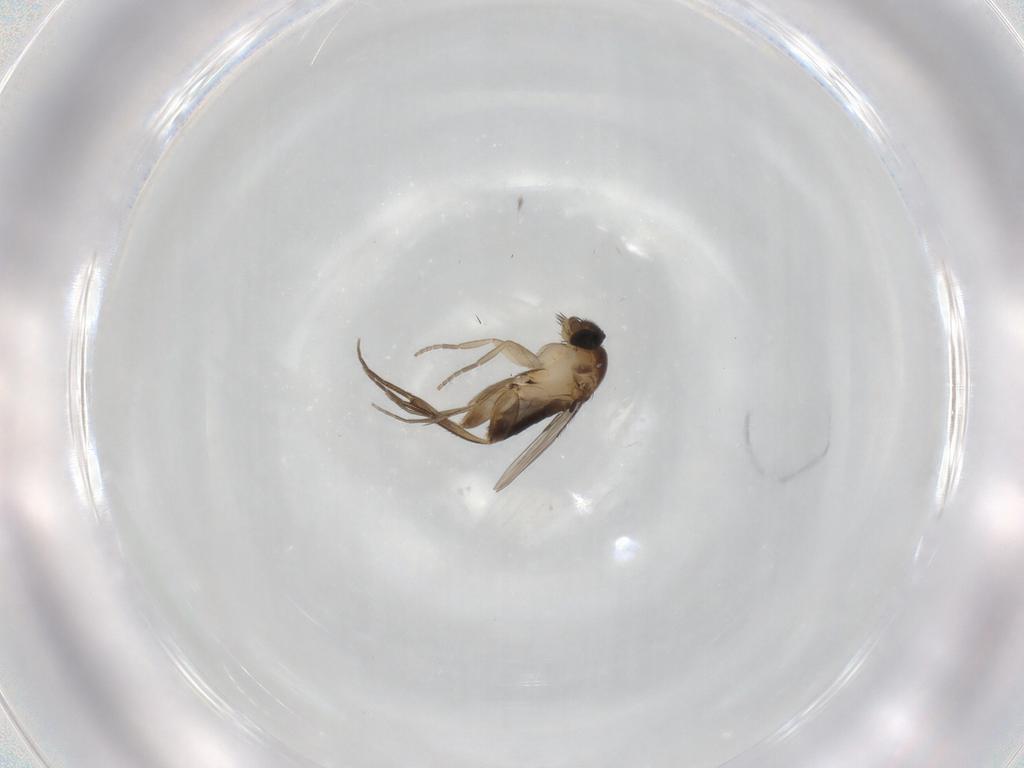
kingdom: Animalia
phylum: Arthropoda
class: Insecta
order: Diptera
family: Phoridae
